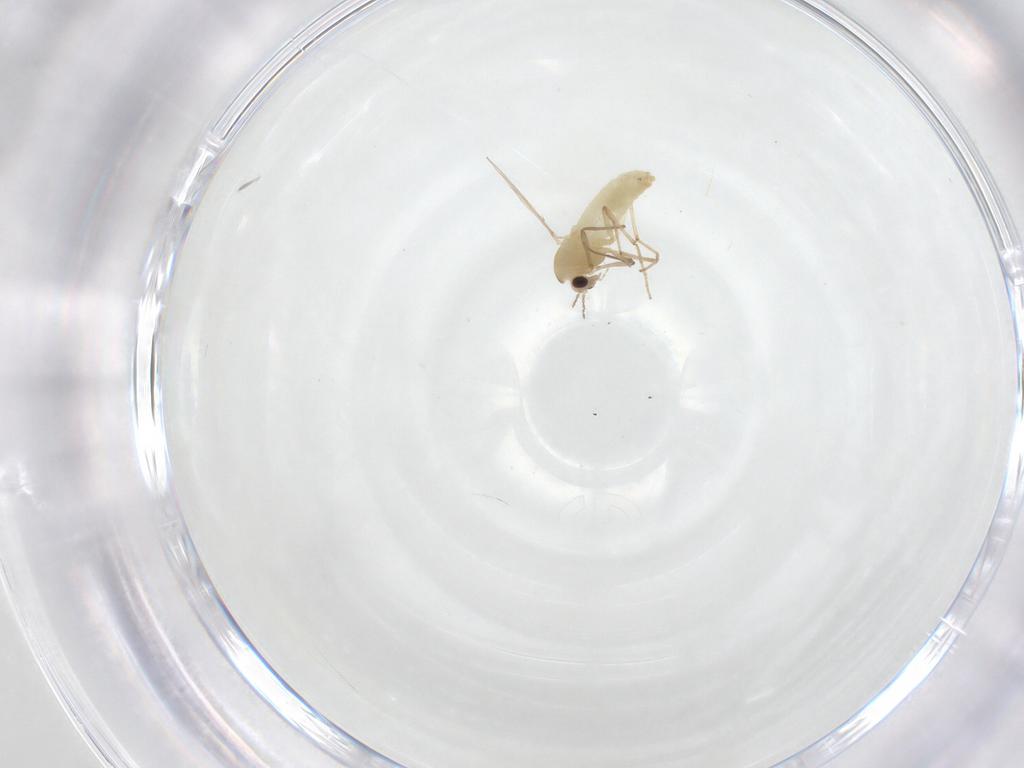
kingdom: Animalia
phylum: Arthropoda
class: Insecta
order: Diptera
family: Chironomidae
